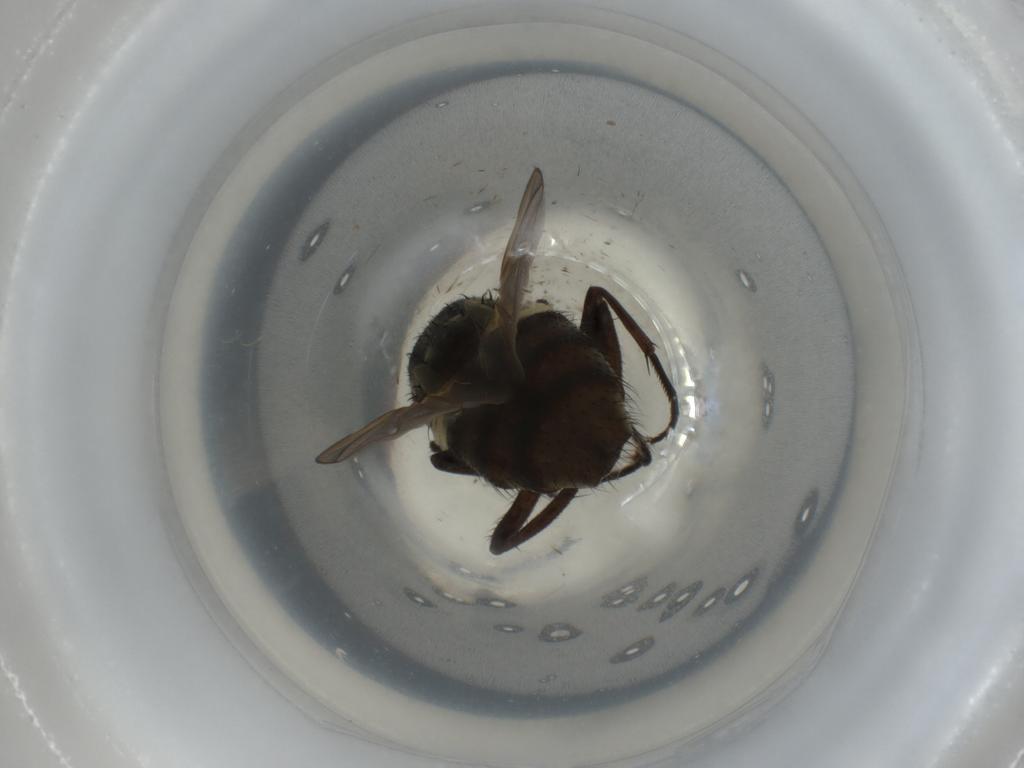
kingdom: Animalia
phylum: Arthropoda
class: Insecta
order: Diptera
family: Muscidae
